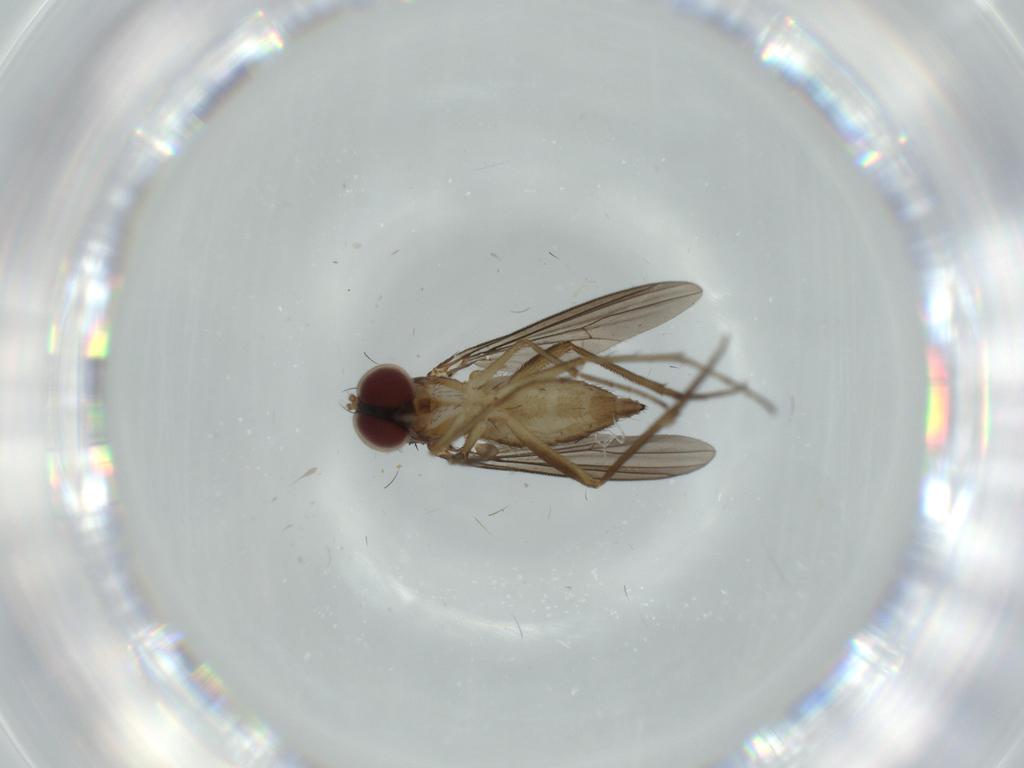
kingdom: Animalia
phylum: Arthropoda
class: Insecta
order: Diptera
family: Dolichopodidae
